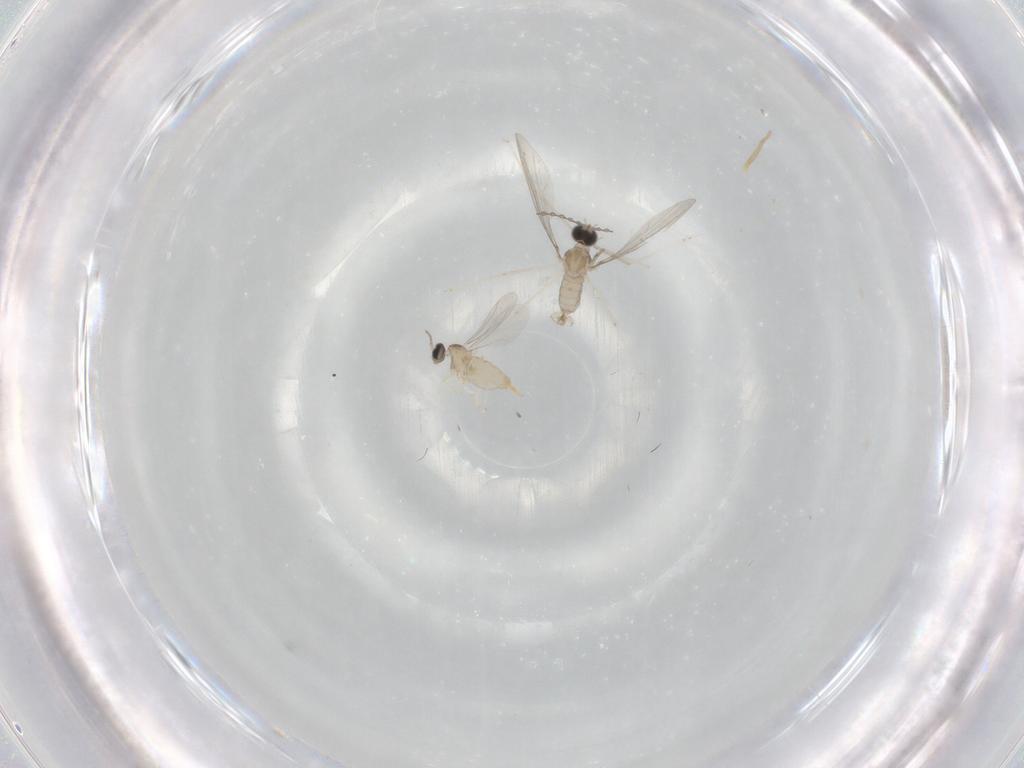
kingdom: Animalia
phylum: Arthropoda
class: Insecta
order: Diptera
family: Cecidomyiidae
